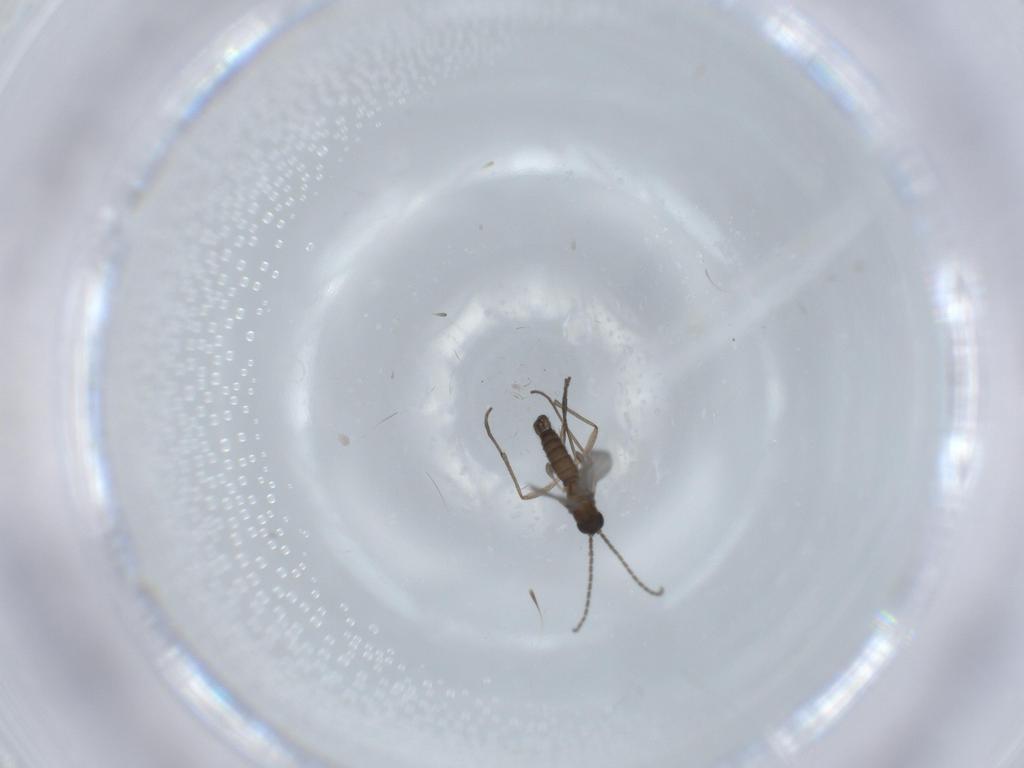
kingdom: Animalia
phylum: Arthropoda
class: Insecta
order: Diptera
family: Sciaridae
